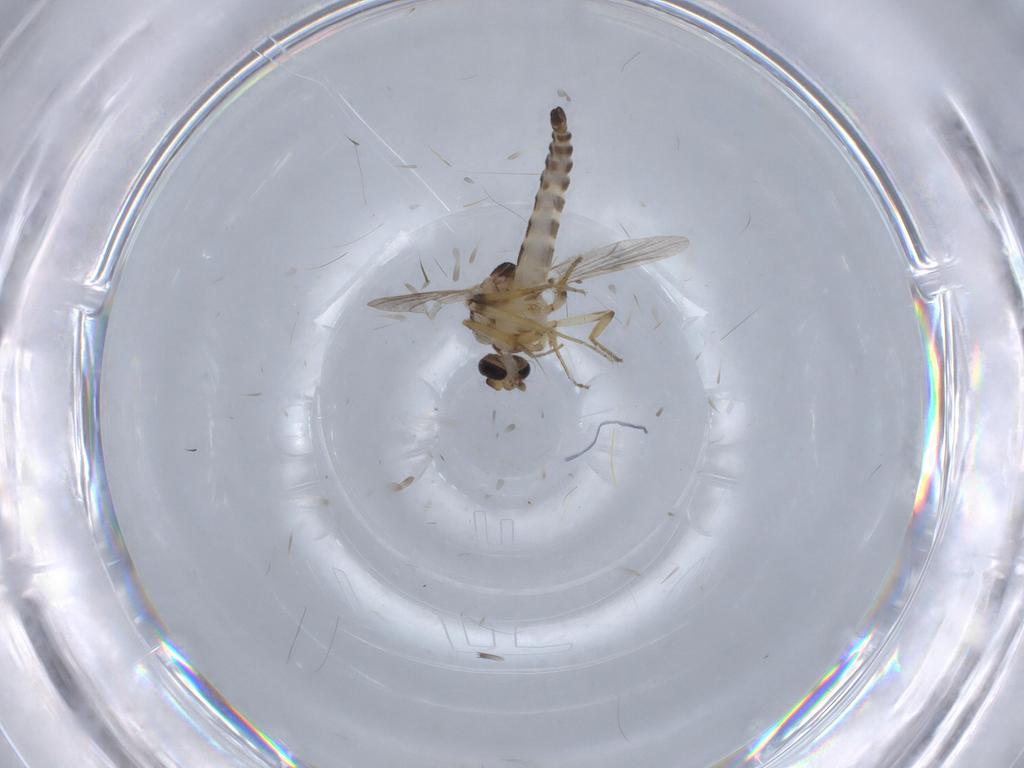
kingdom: Animalia
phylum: Arthropoda
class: Insecta
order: Diptera
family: Ceratopogonidae
